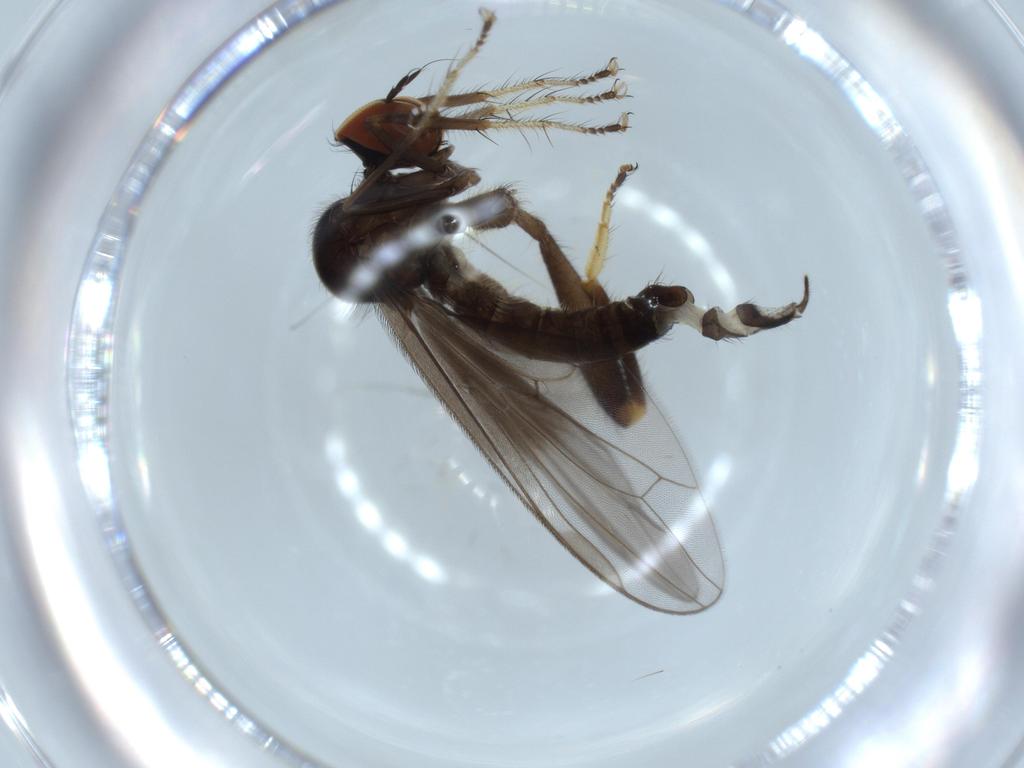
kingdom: Animalia
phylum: Arthropoda
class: Insecta
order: Diptera
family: Hybotidae
